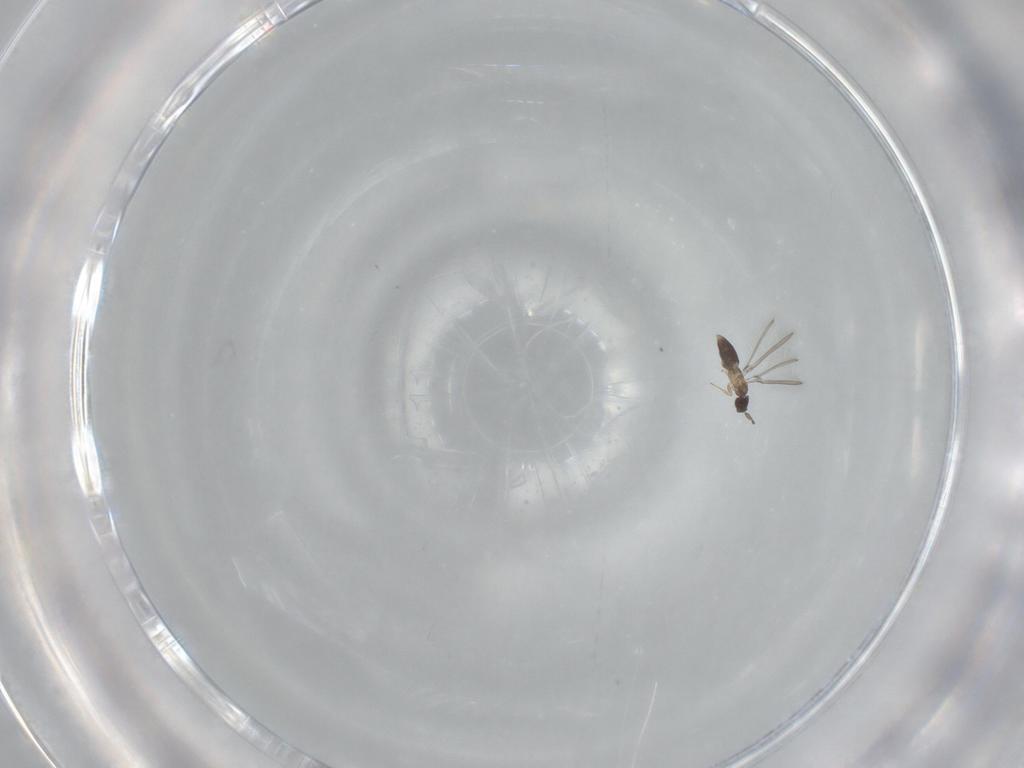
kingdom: Animalia
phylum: Arthropoda
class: Insecta
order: Hymenoptera
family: Mymaridae
